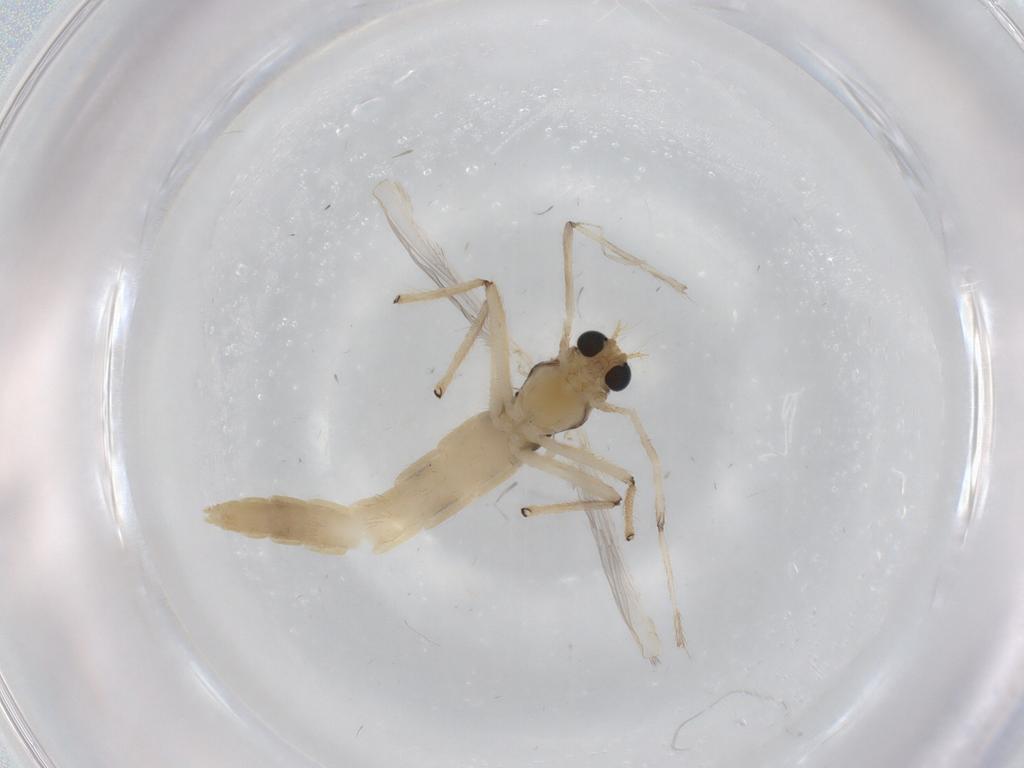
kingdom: Animalia
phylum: Arthropoda
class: Insecta
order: Diptera
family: Chironomidae
